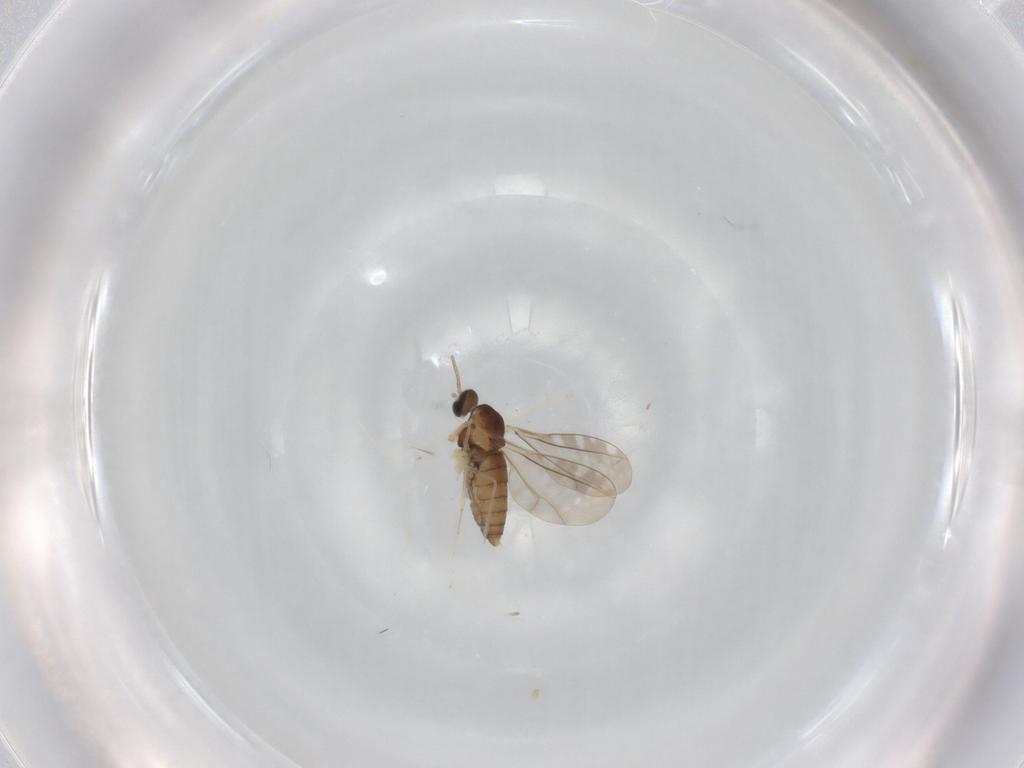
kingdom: Animalia
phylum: Arthropoda
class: Insecta
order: Diptera
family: Cecidomyiidae
